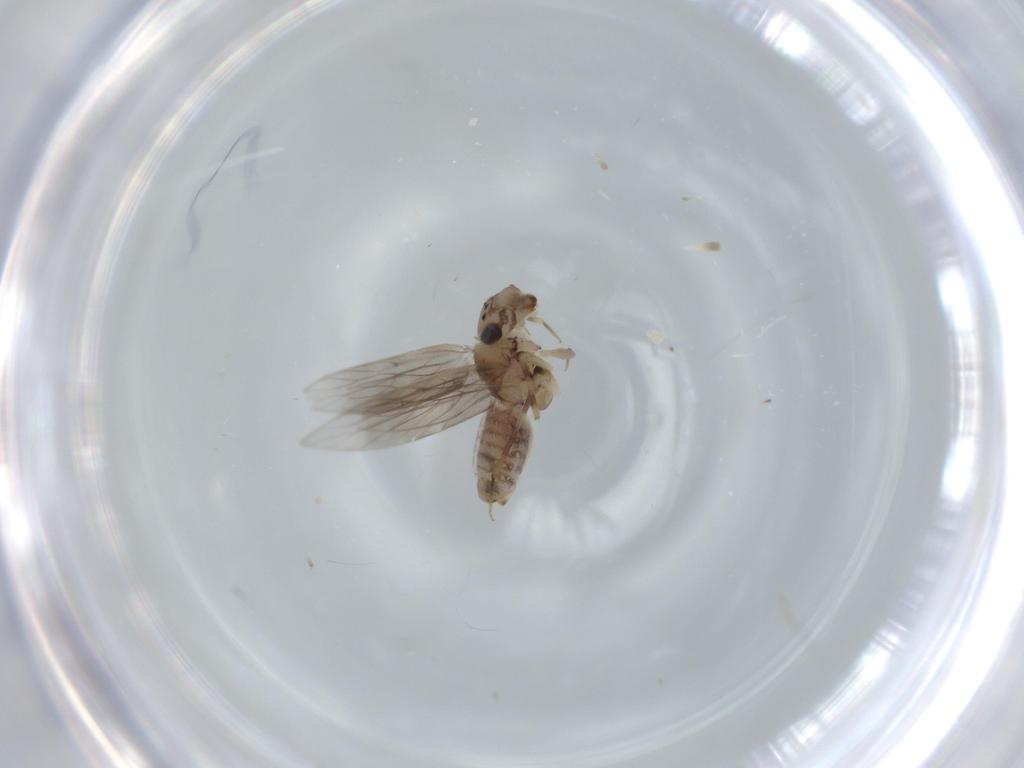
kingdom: Animalia
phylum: Arthropoda
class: Insecta
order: Psocodea
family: Lepidopsocidae
